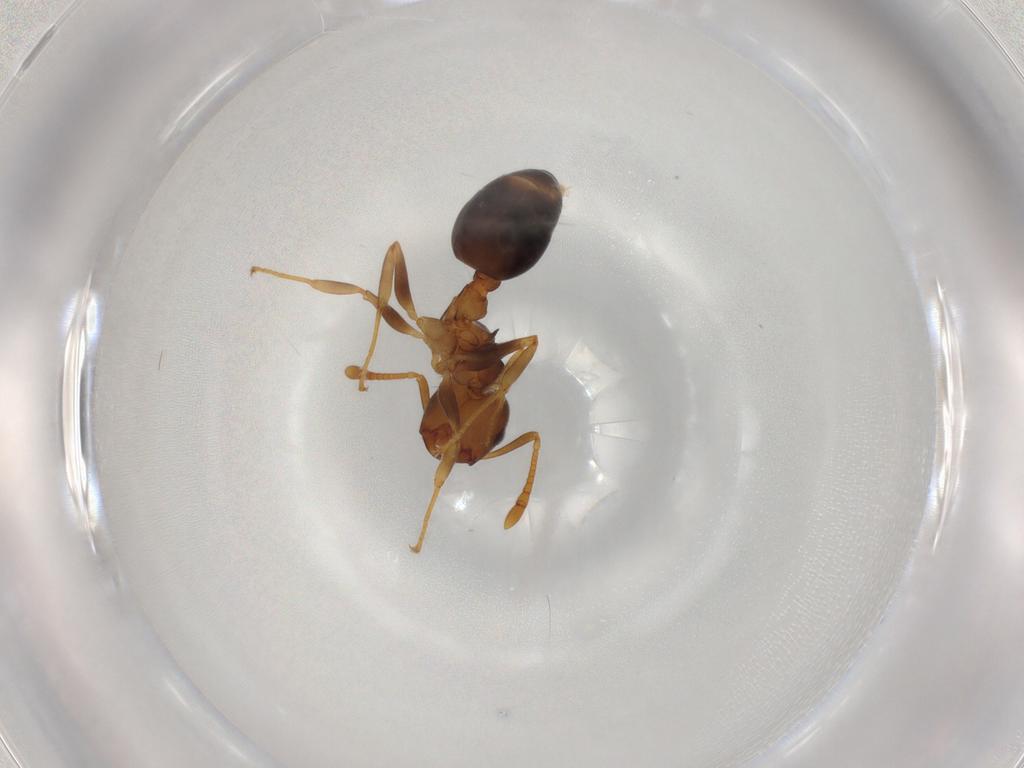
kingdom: Animalia
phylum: Arthropoda
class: Insecta
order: Hymenoptera
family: Formicidae
